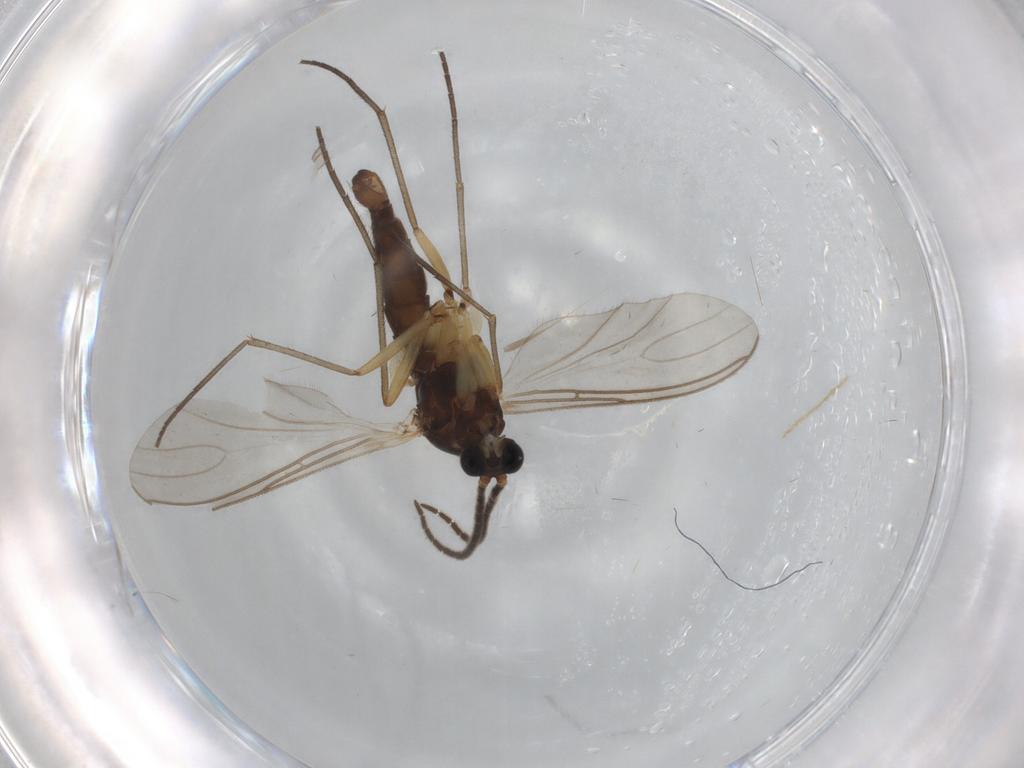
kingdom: Animalia
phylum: Arthropoda
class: Insecta
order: Diptera
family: Sciaridae
